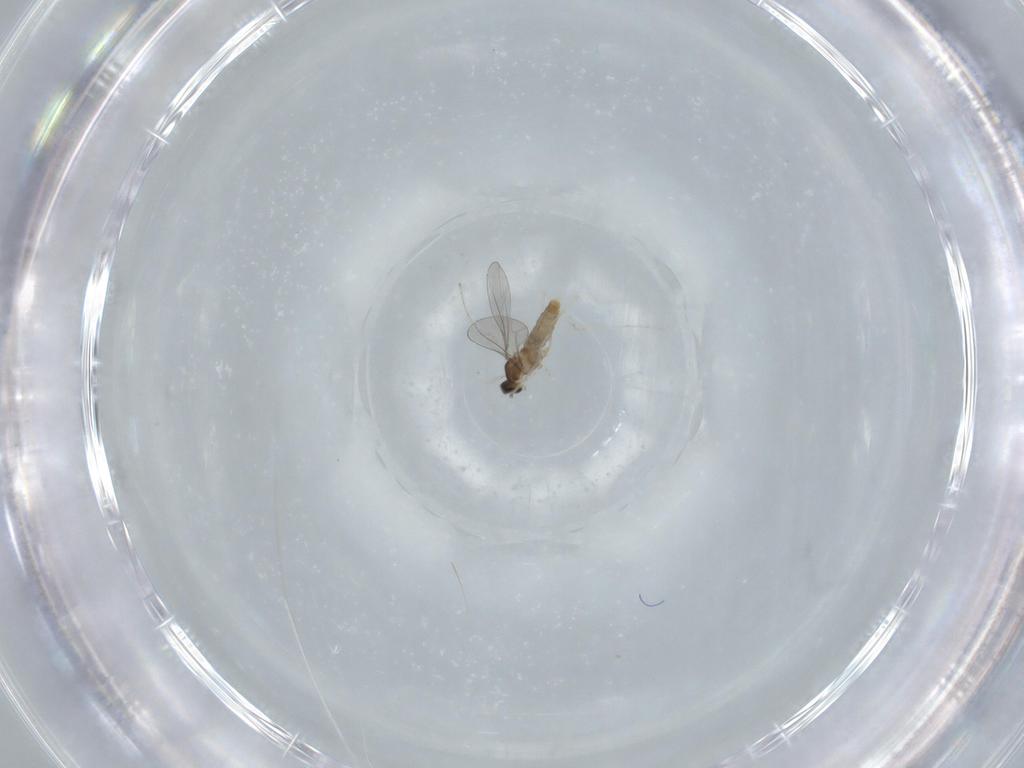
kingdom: Animalia
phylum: Arthropoda
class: Insecta
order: Diptera
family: Cecidomyiidae
